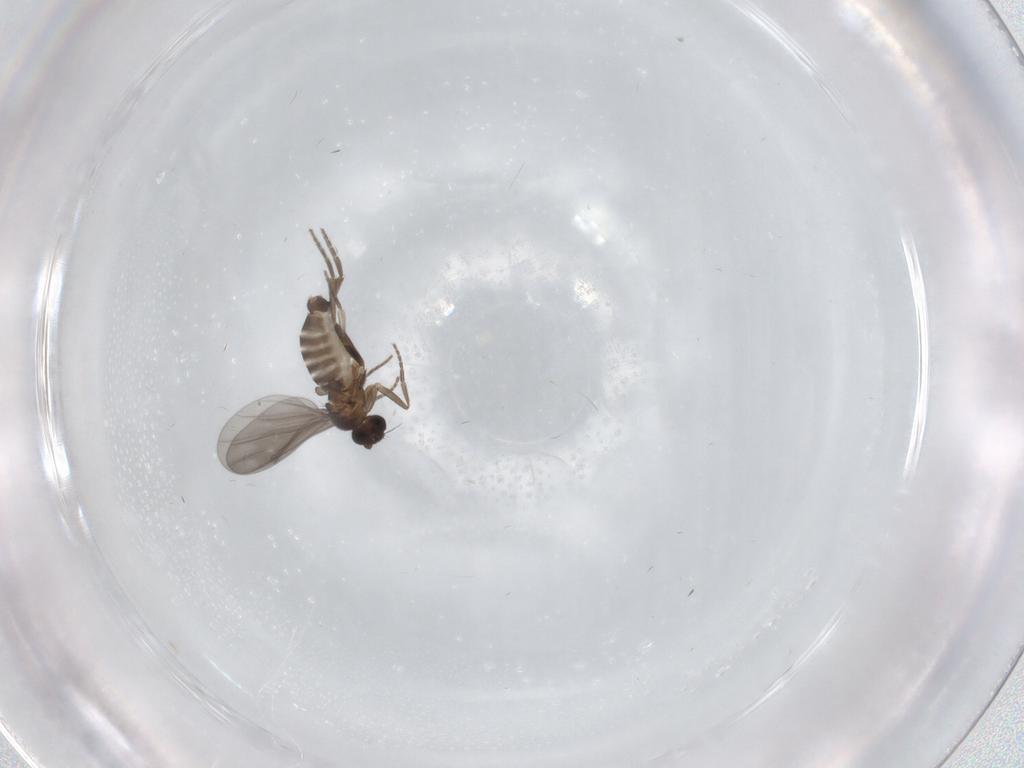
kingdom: Animalia
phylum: Arthropoda
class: Insecta
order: Diptera
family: Phoridae
